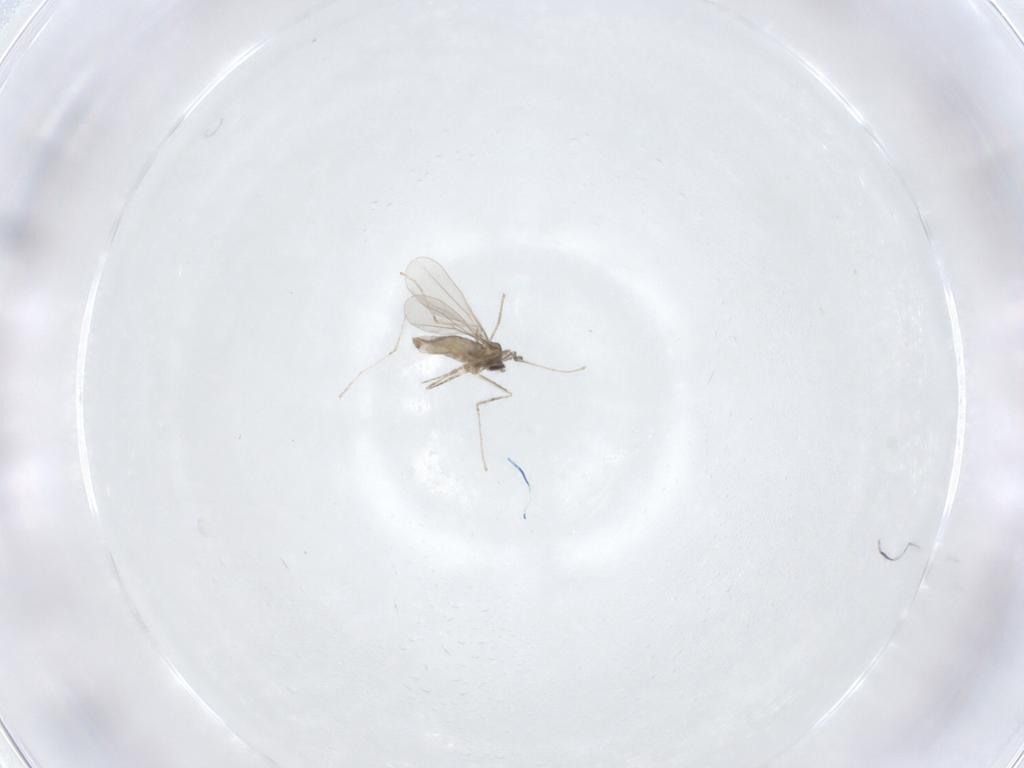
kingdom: Animalia
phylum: Arthropoda
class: Insecta
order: Diptera
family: Cecidomyiidae
